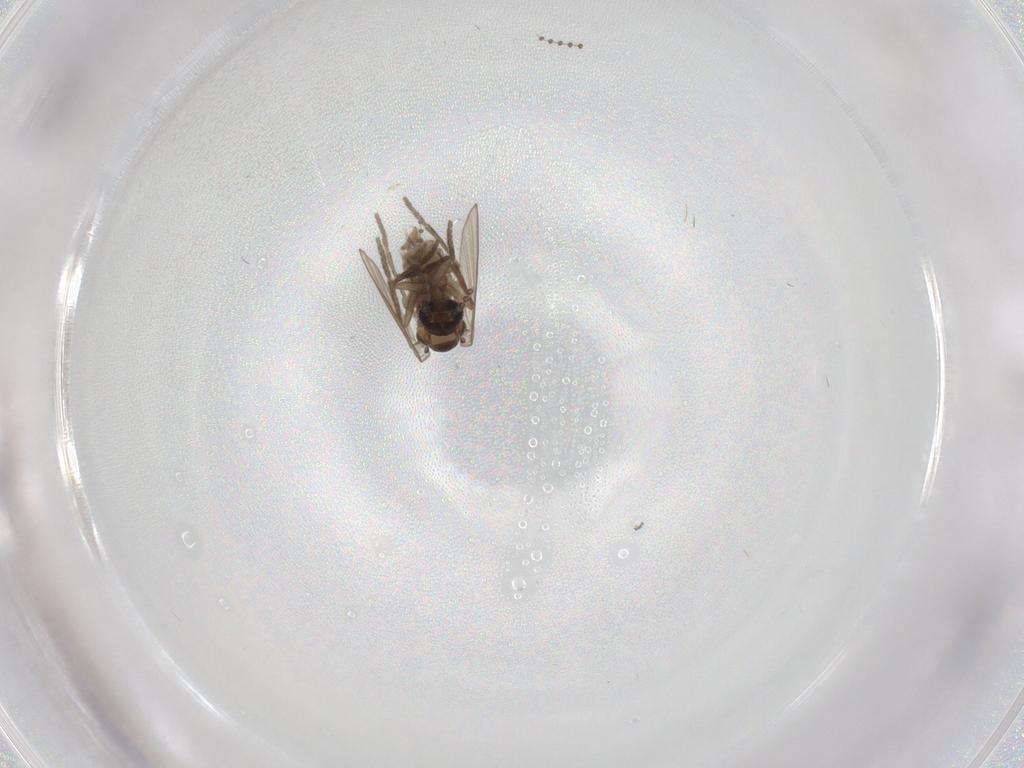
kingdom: Animalia
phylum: Arthropoda
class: Insecta
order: Diptera
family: Psychodidae
